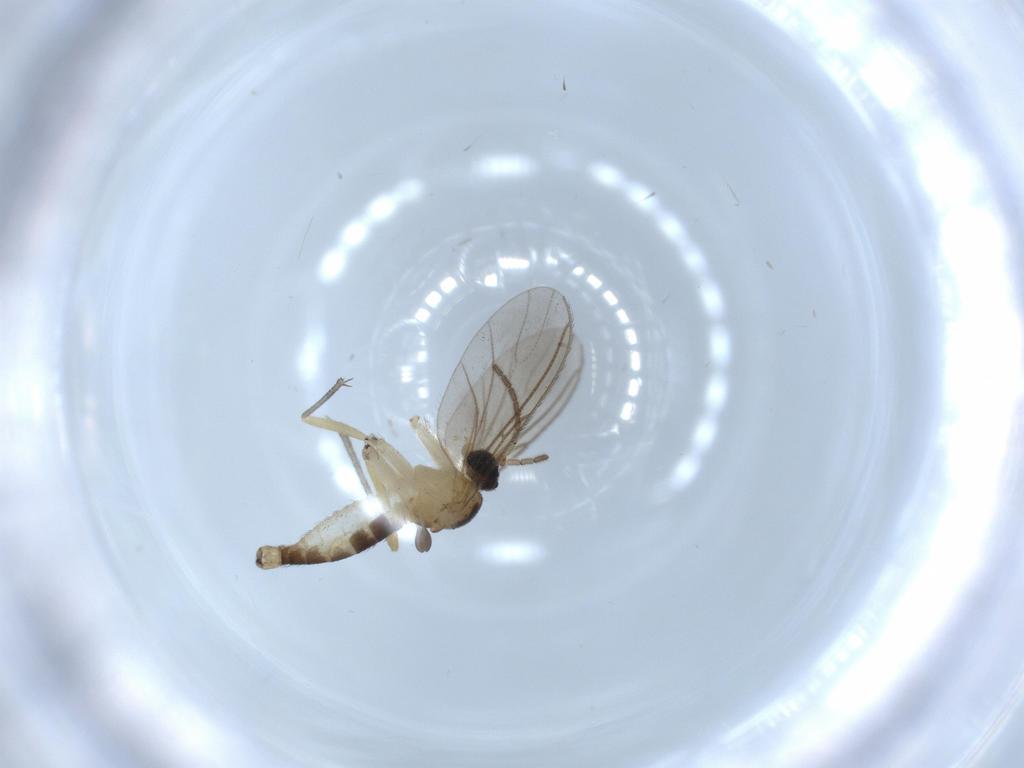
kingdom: Animalia
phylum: Arthropoda
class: Insecta
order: Diptera
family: Sciaridae
